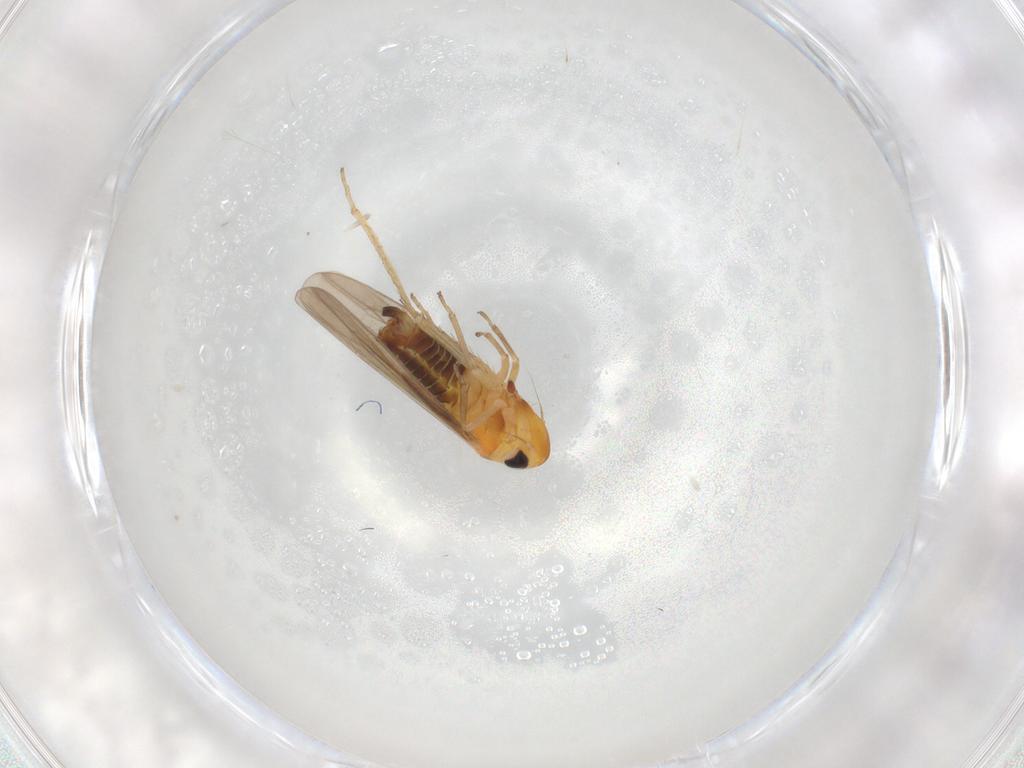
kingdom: Animalia
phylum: Arthropoda
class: Insecta
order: Hemiptera
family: Cicadellidae
